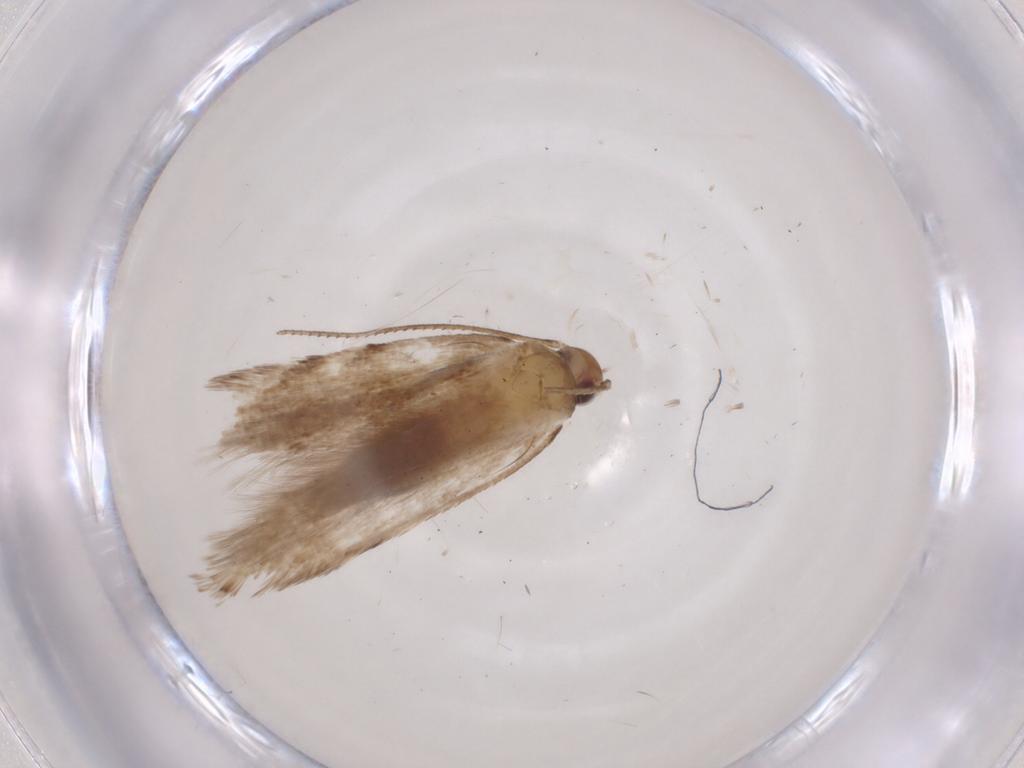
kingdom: Animalia
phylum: Arthropoda
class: Insecta
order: Lepidoptera
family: Gelechiidae
